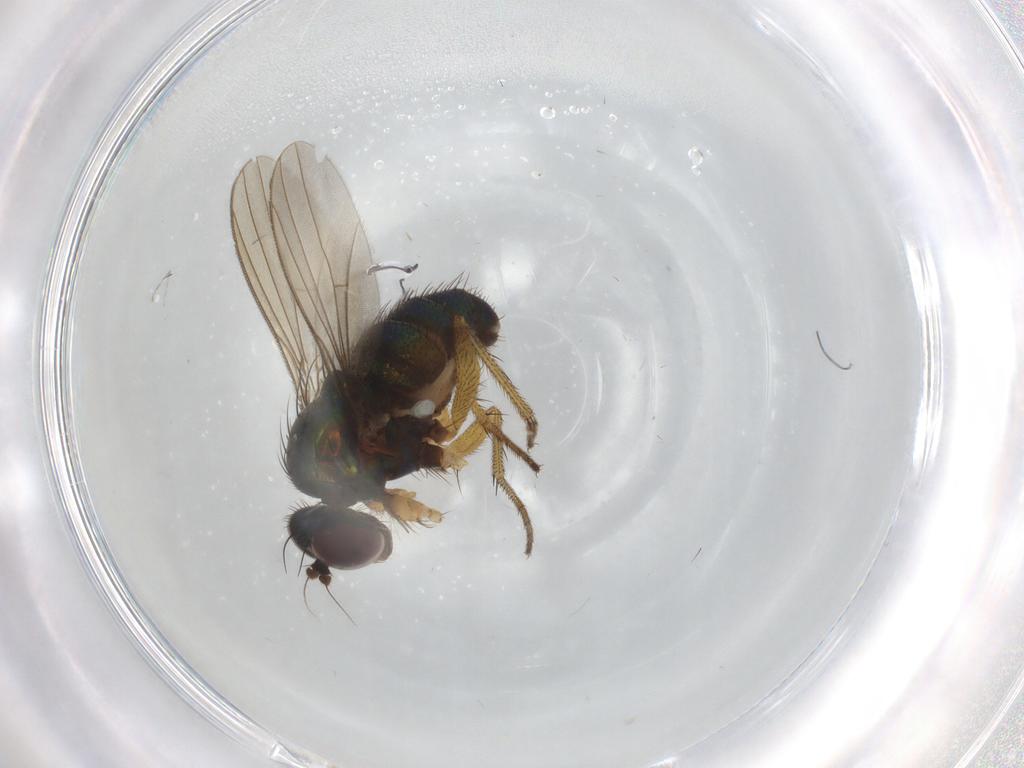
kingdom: Animalia
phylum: Arthropoda
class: Insecta
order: Diptera
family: Dolichopodidae
